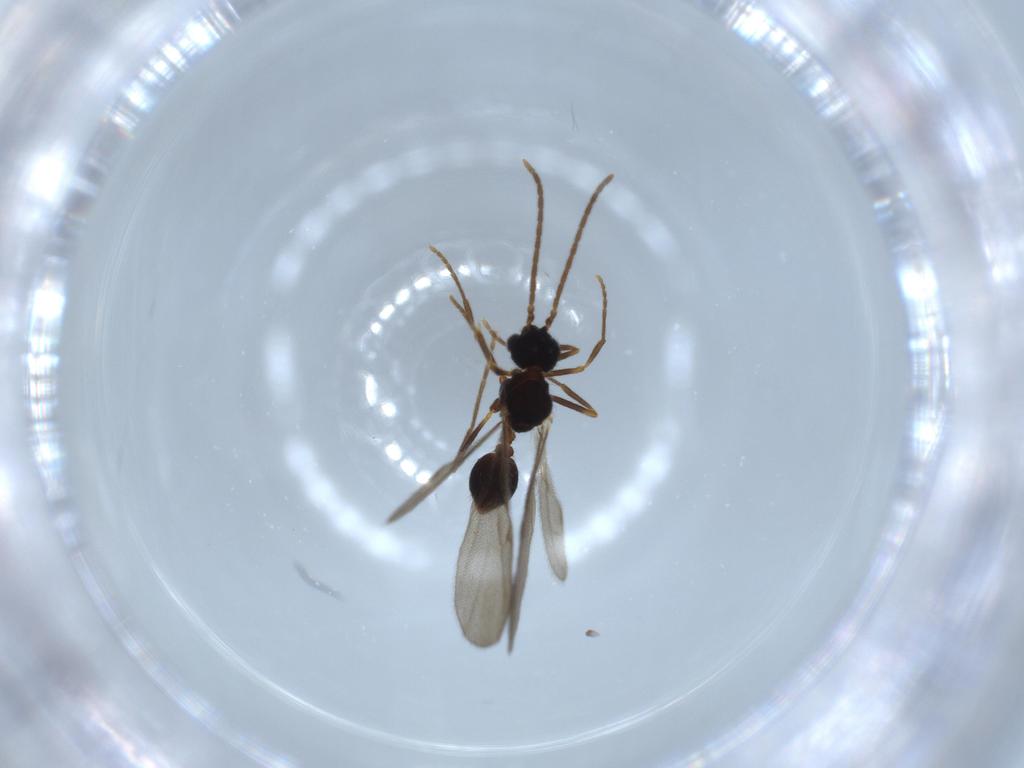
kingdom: Animalia
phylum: Arthropoda
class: Insecta
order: Hymenoptera
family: Formicidae
